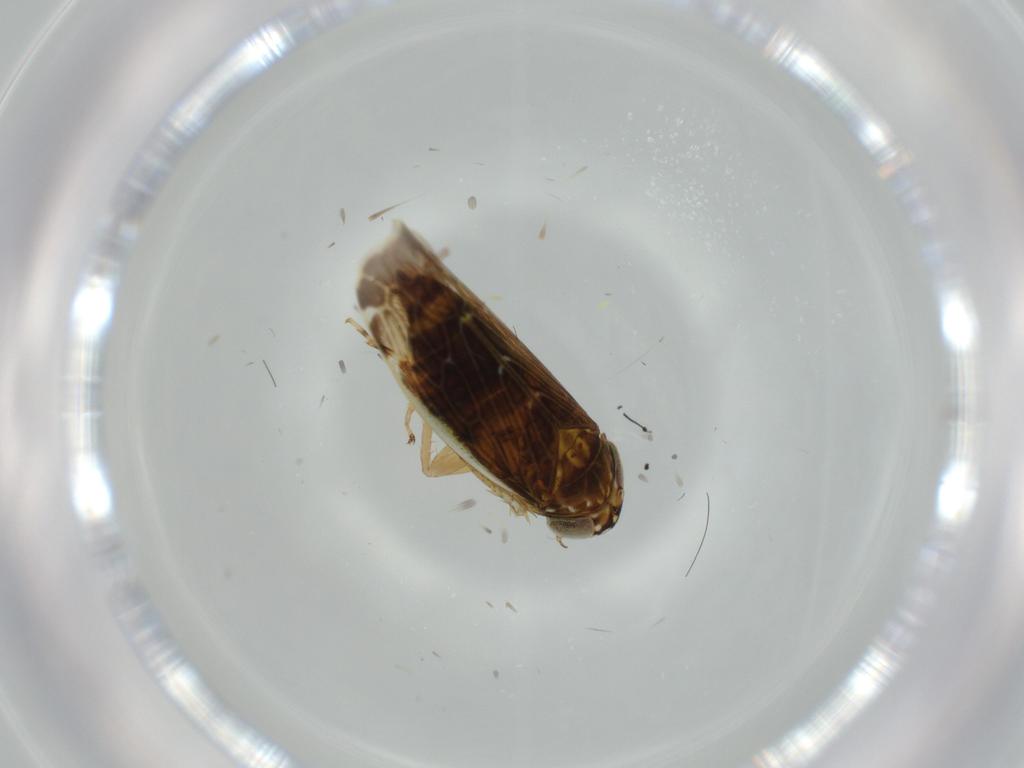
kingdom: Animalia
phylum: Arthropoda
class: Insecta
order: Hemiptera
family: Cicadellidae
